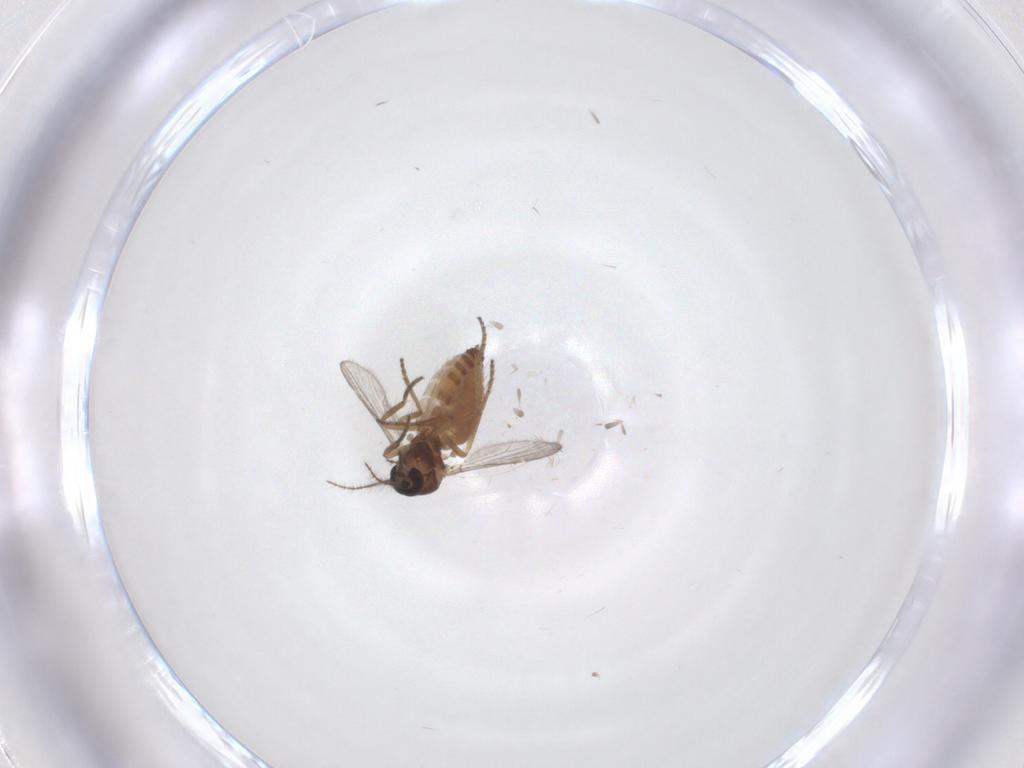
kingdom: Animalia
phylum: Arthropoda
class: Insecta
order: Diptera
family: Ceratopogonidae
